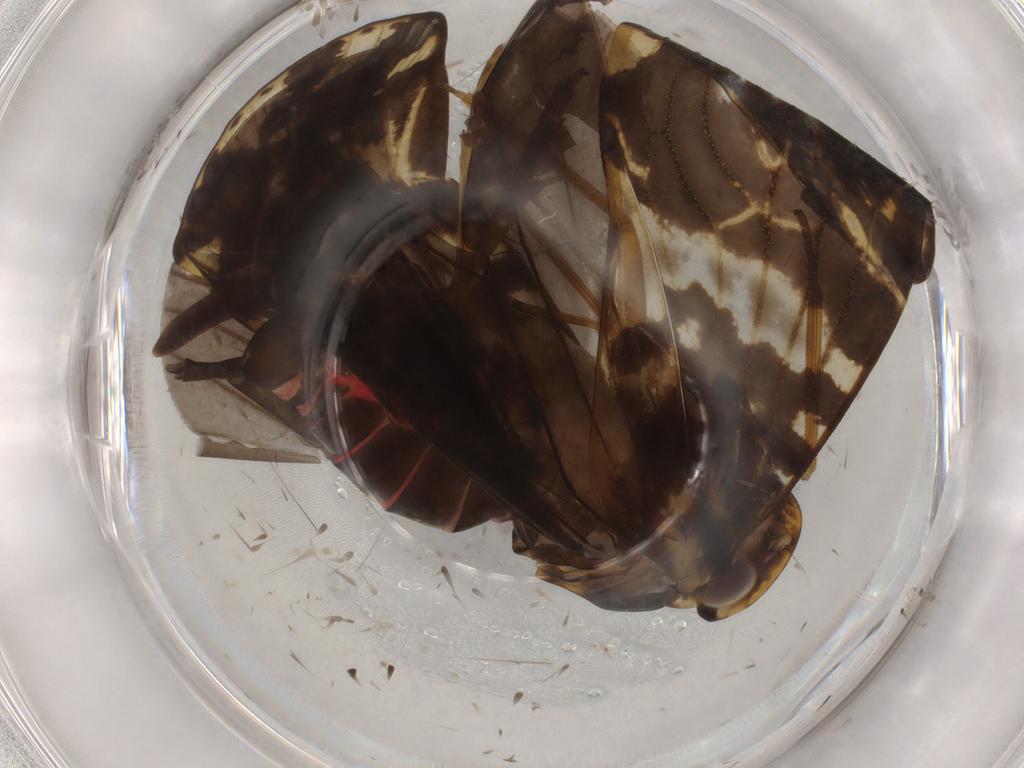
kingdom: Animalia
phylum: Arthropoda
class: Insecta
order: Hemiptera
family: Cixiidae
